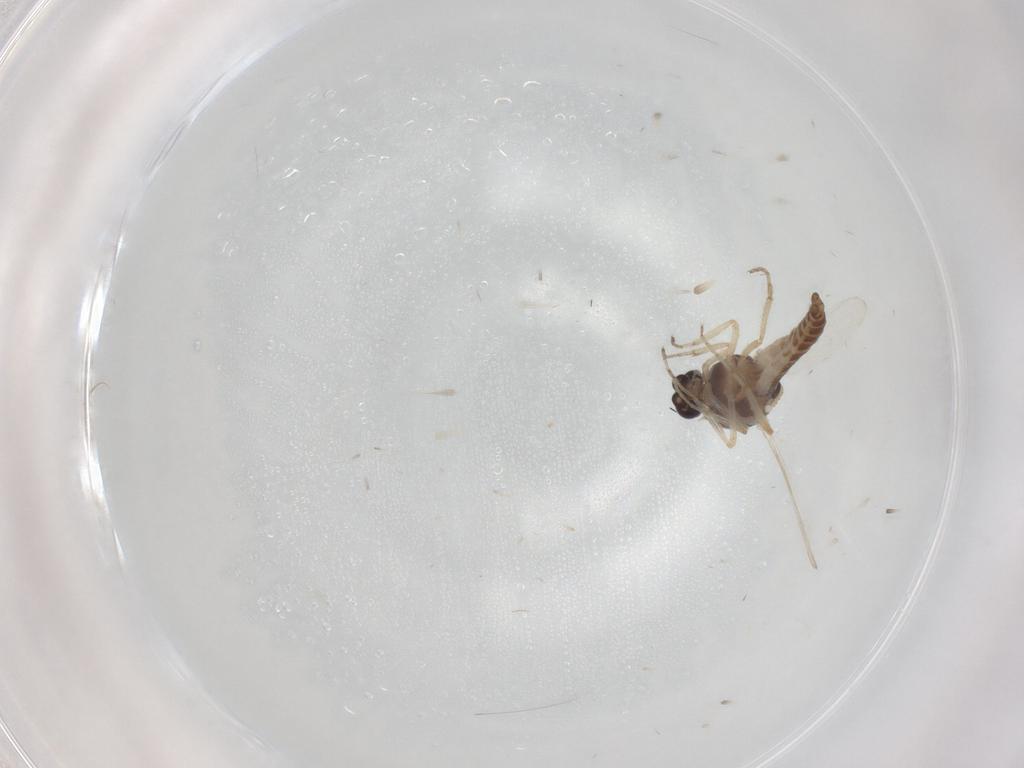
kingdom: Animalia
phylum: Arthropoda
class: Insecta
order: Diptera
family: Ceratopogonidae
